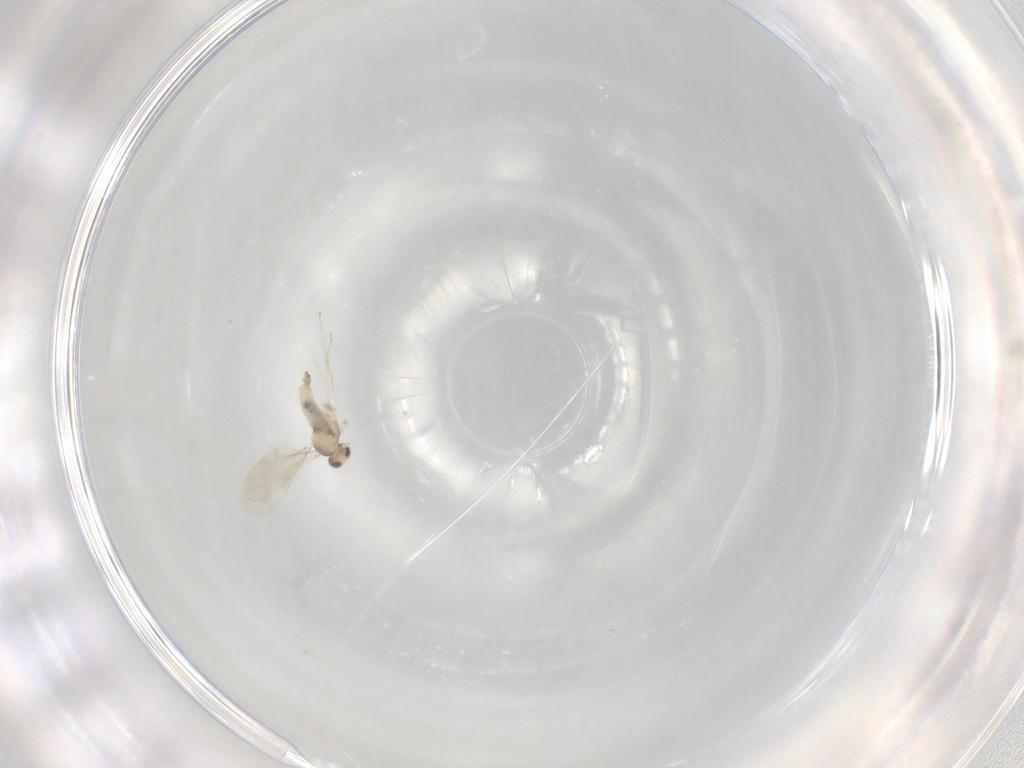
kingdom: Animalia
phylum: Arthropoda
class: Insecta
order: Diptera
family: Cecidomyiidae
